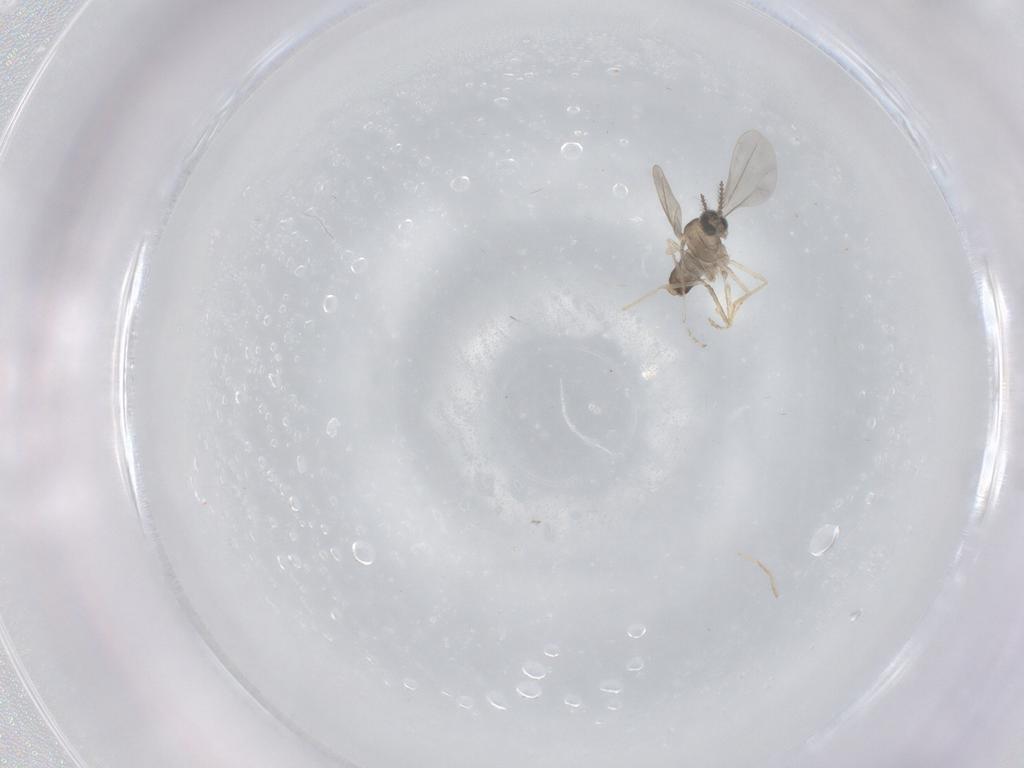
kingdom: Animalia
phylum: Arthropoda
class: Insecta
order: Diptera
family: Cecidomyiidae
